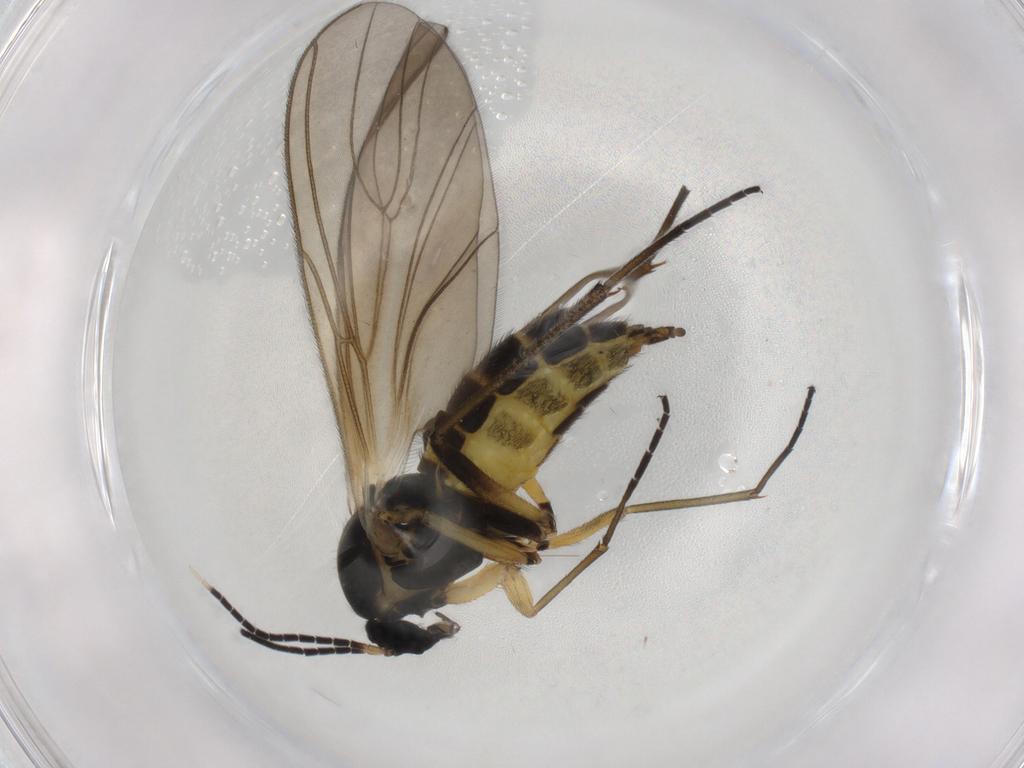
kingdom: Animalia
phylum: Arthropoda
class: Insecta
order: Diptera
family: Sciaridae
